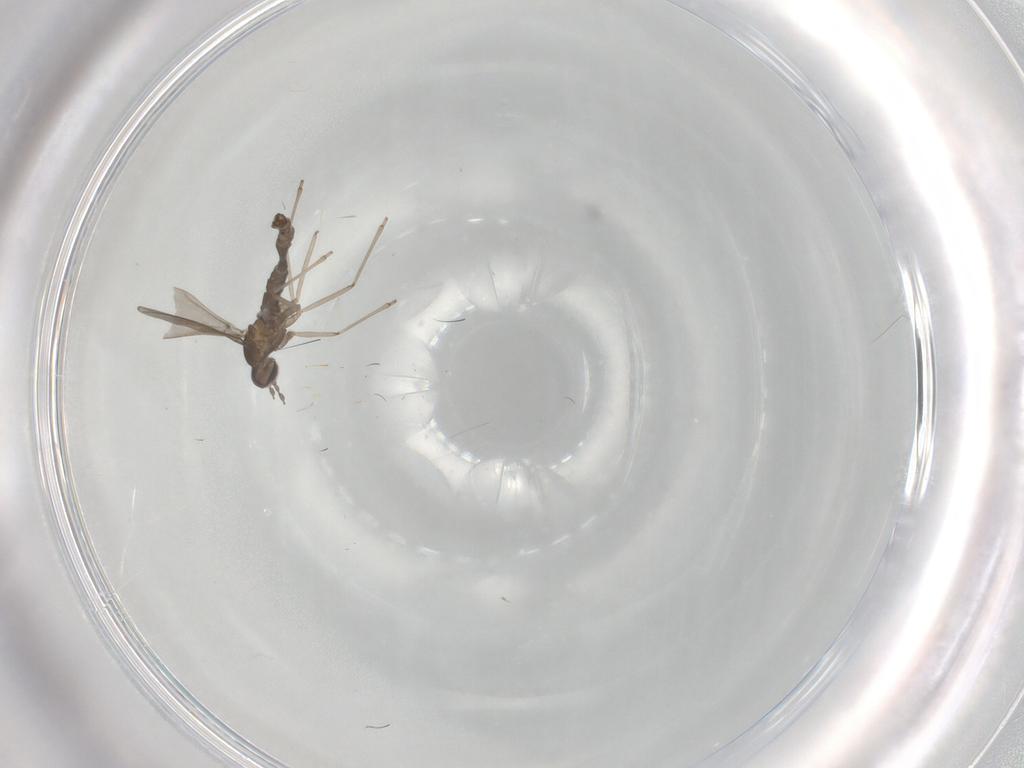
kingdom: Animalia
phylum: Arthropoda
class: Insecta
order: Diptera
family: Cecidomyiidae
